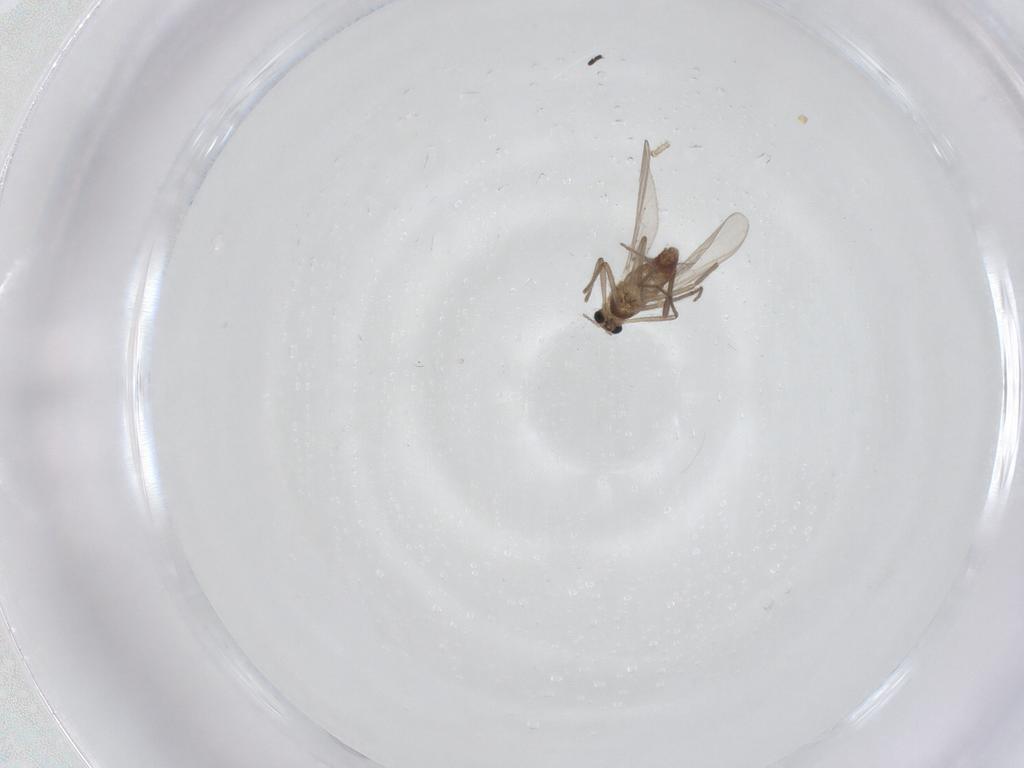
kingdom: Animalia
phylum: Arthropoda
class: Insecta
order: Diptera
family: Chironomidae
